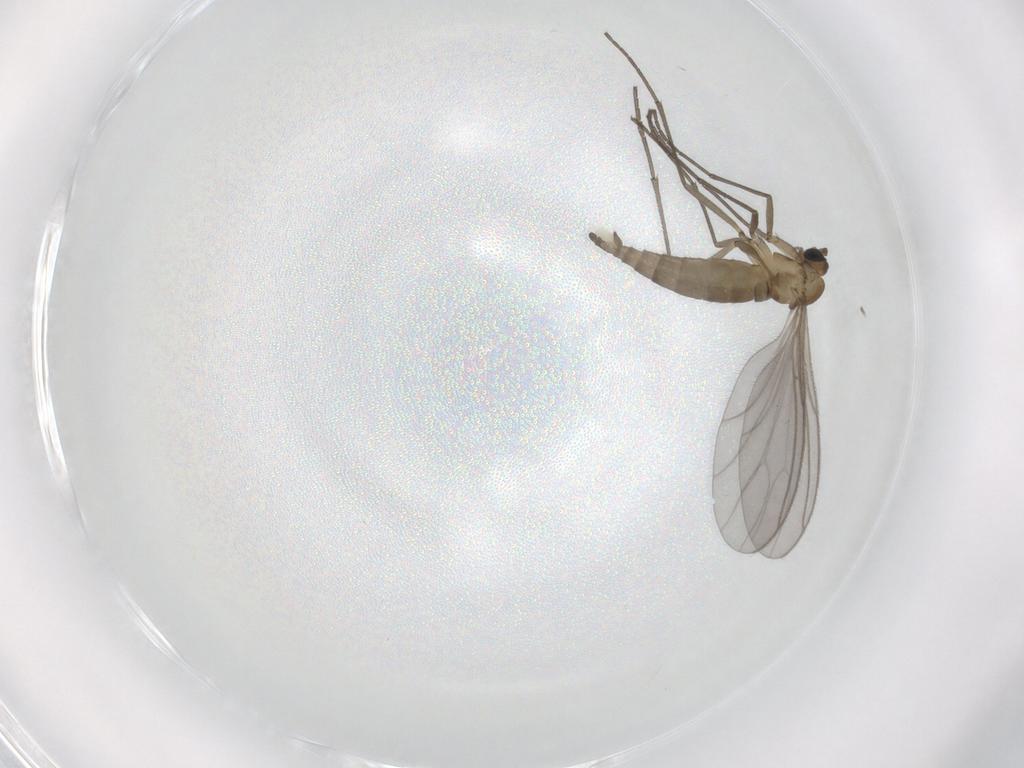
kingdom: Animalia
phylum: Arthropoda
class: Insecta
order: Diptera
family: Sciaridae
